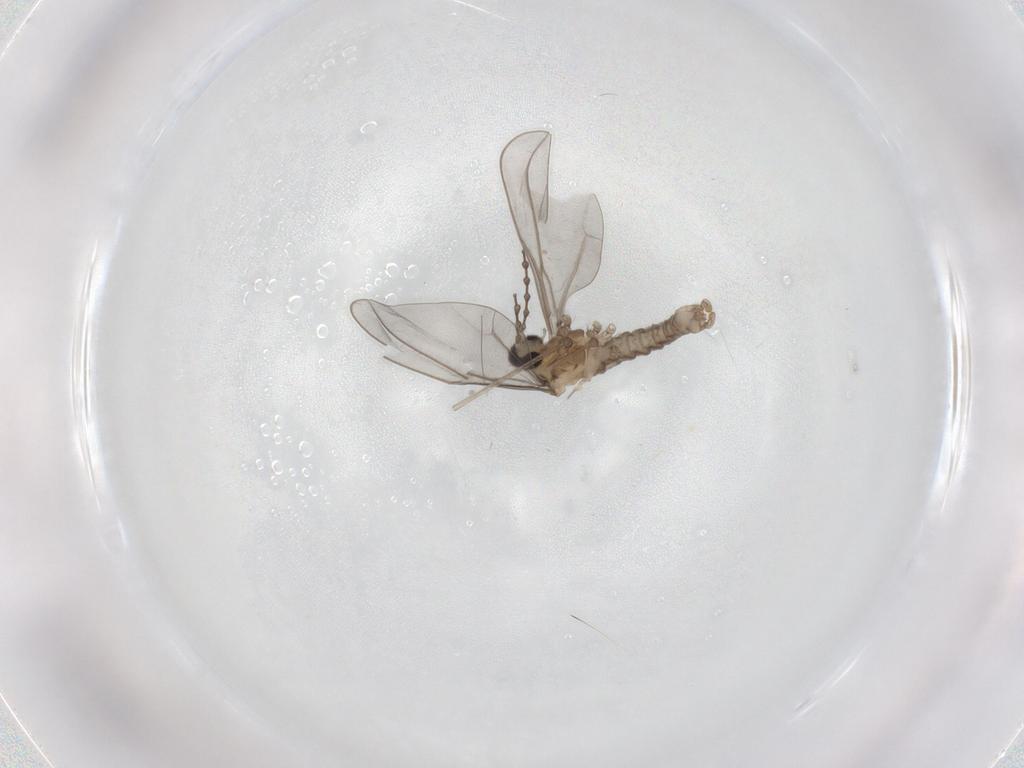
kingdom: Animalia
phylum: Arthropoda
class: Insecta
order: Diptera
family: Cecidomyiidae
